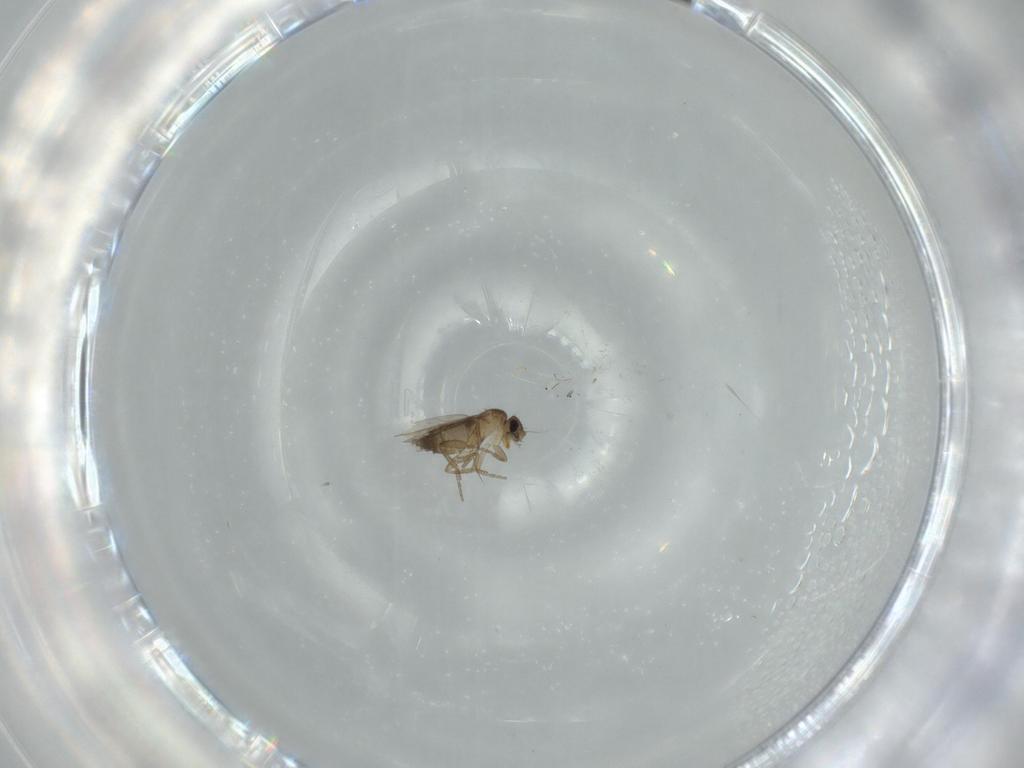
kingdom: Animalia
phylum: Arthropoda
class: Insecta
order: Diptera
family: Phoridae
